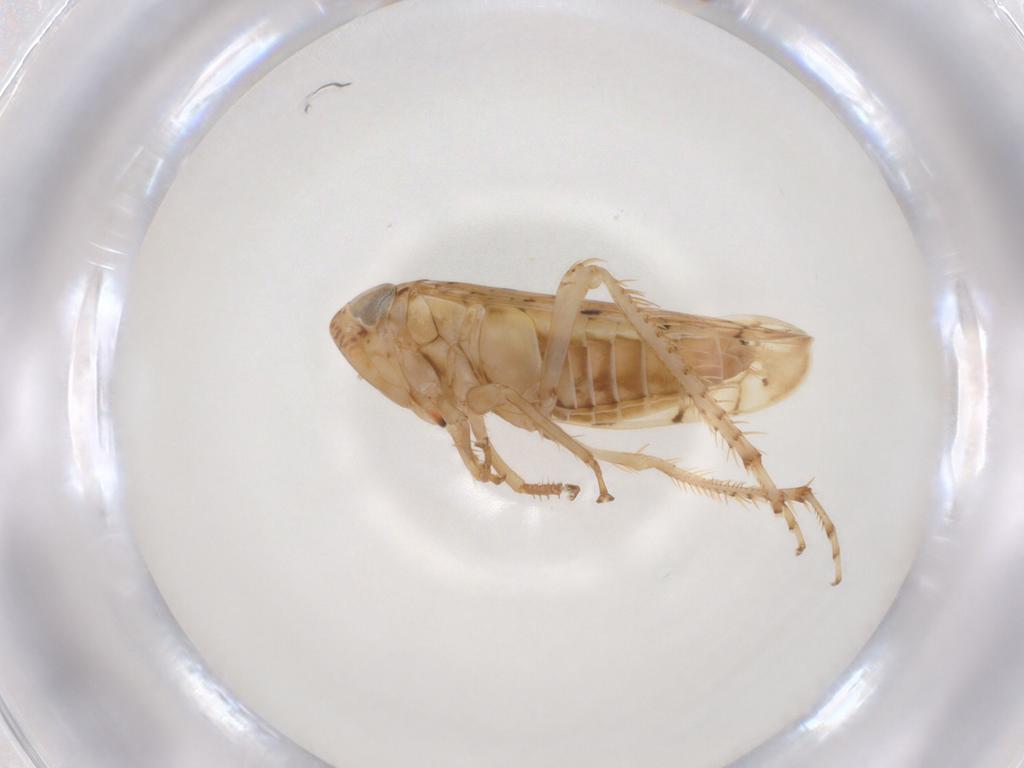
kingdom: Animalia
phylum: Arthropoda
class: Insecta
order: Hemiptera
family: Cicadellidae
